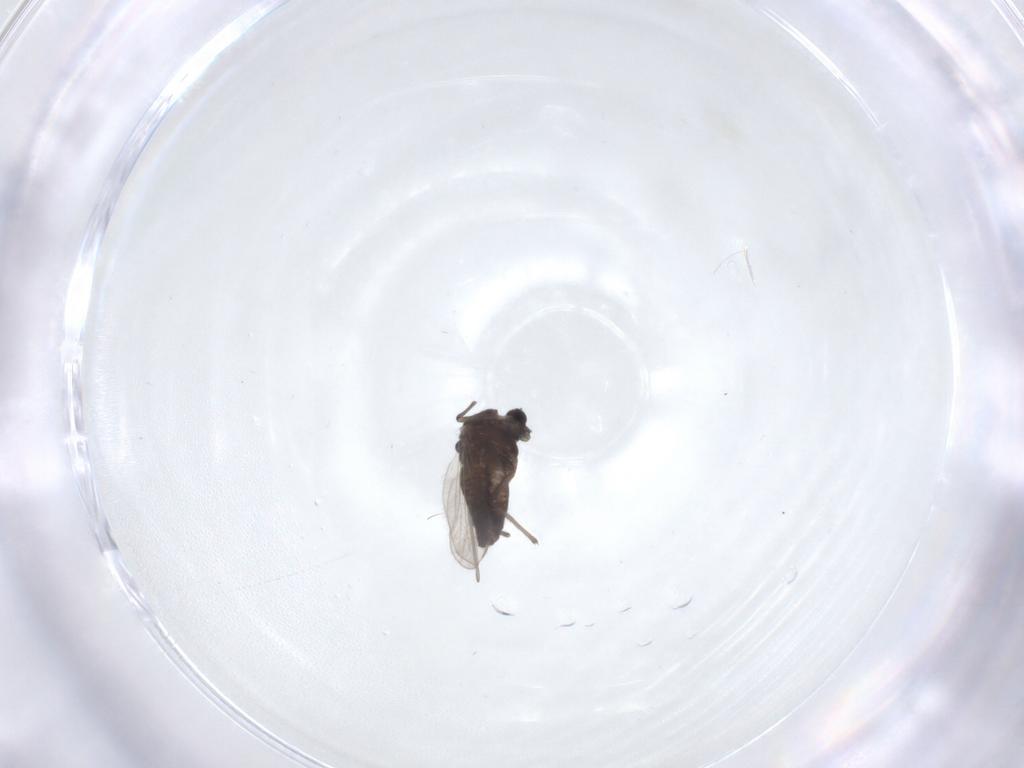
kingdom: Animalia
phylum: Arthropoda
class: Insecta
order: Diptera
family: Chironomidae
